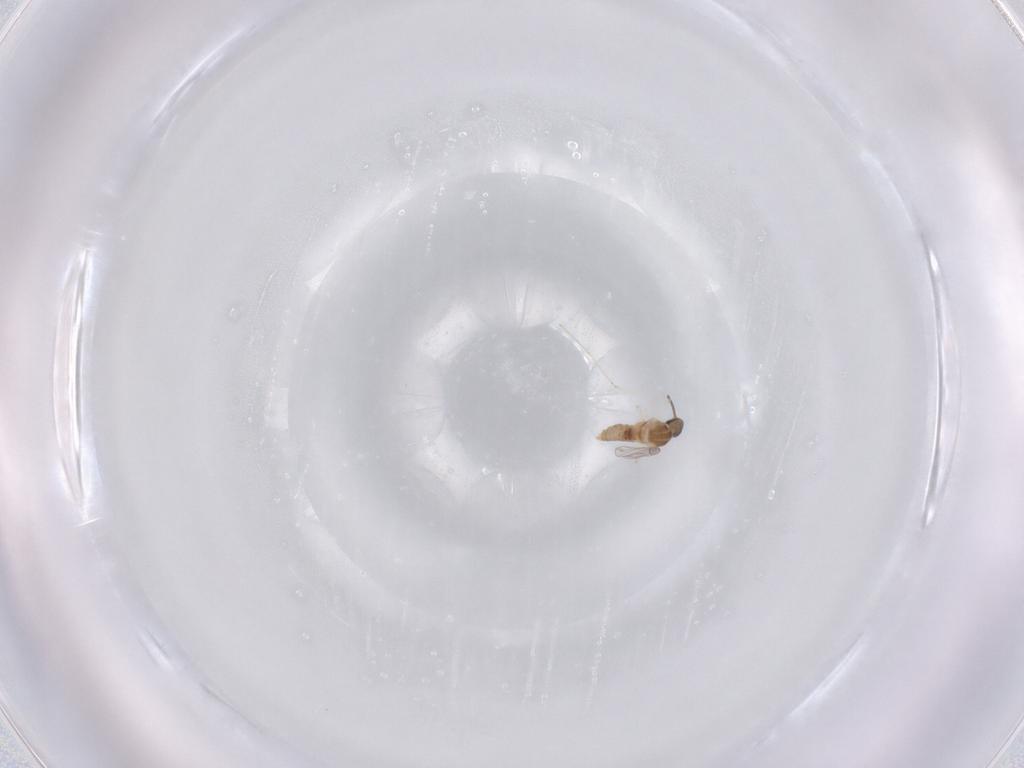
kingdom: Animalia
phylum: Arthropoda
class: Insecta
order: Diptera
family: Cecidomyiidae
